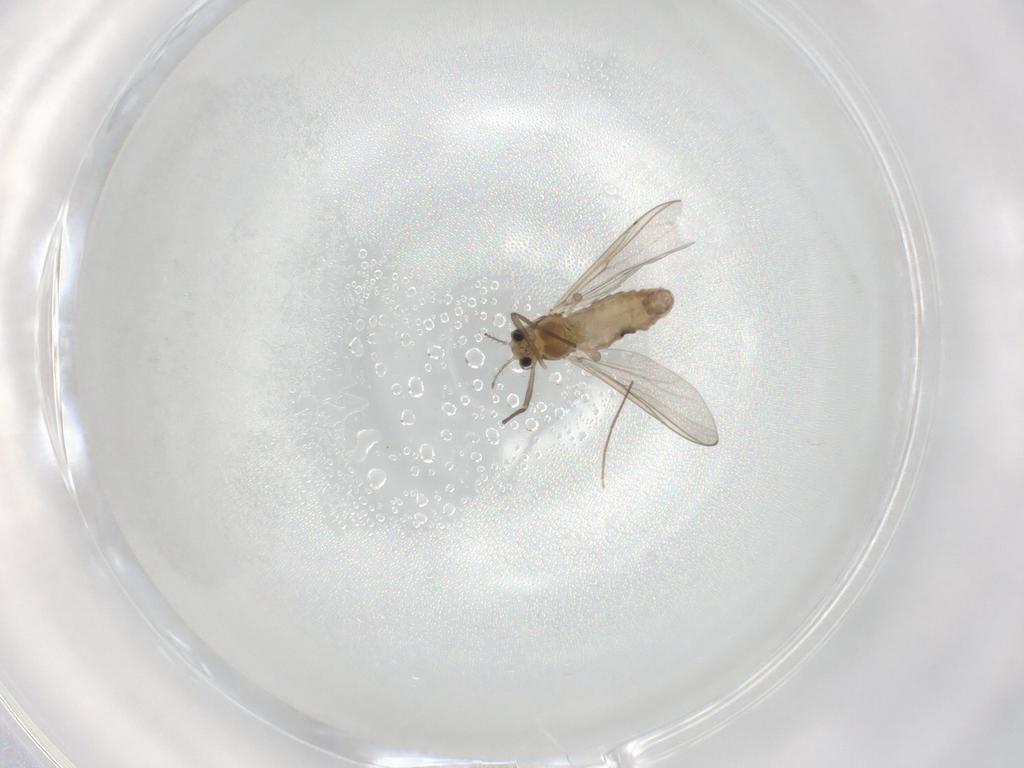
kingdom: Animalia
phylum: Arthropoda
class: Insecta
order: Diptera
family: Chironomidae
